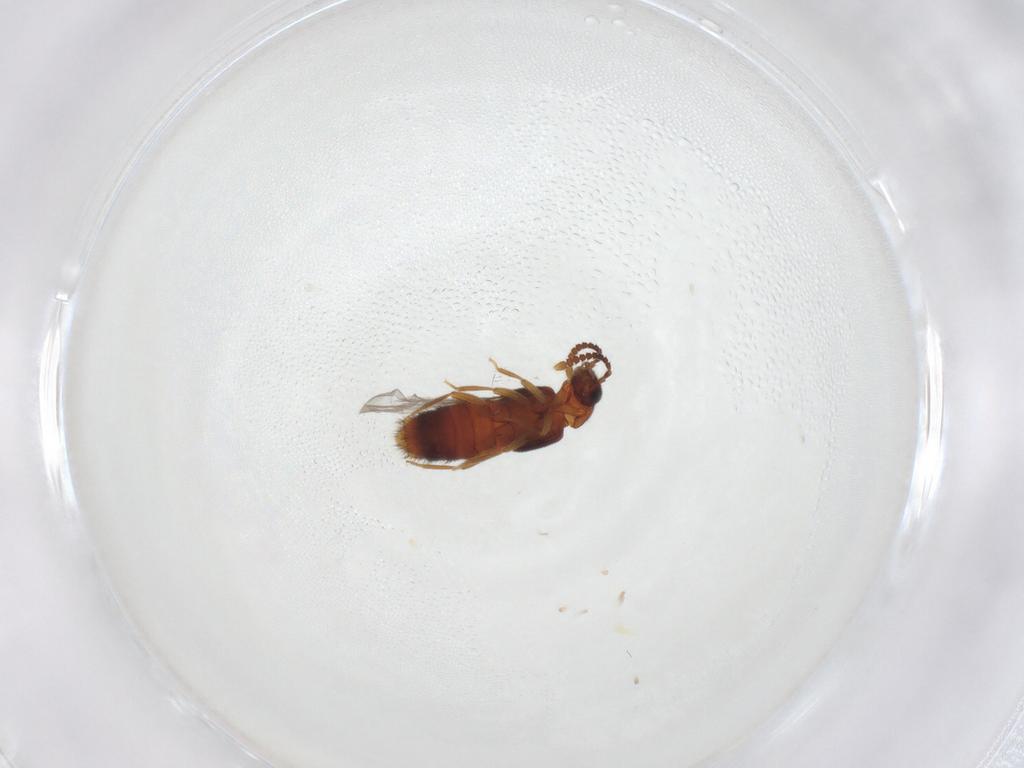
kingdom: Animalia
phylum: Arthropoda
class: Insecta
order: Coleoptera
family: Staphylinidae
